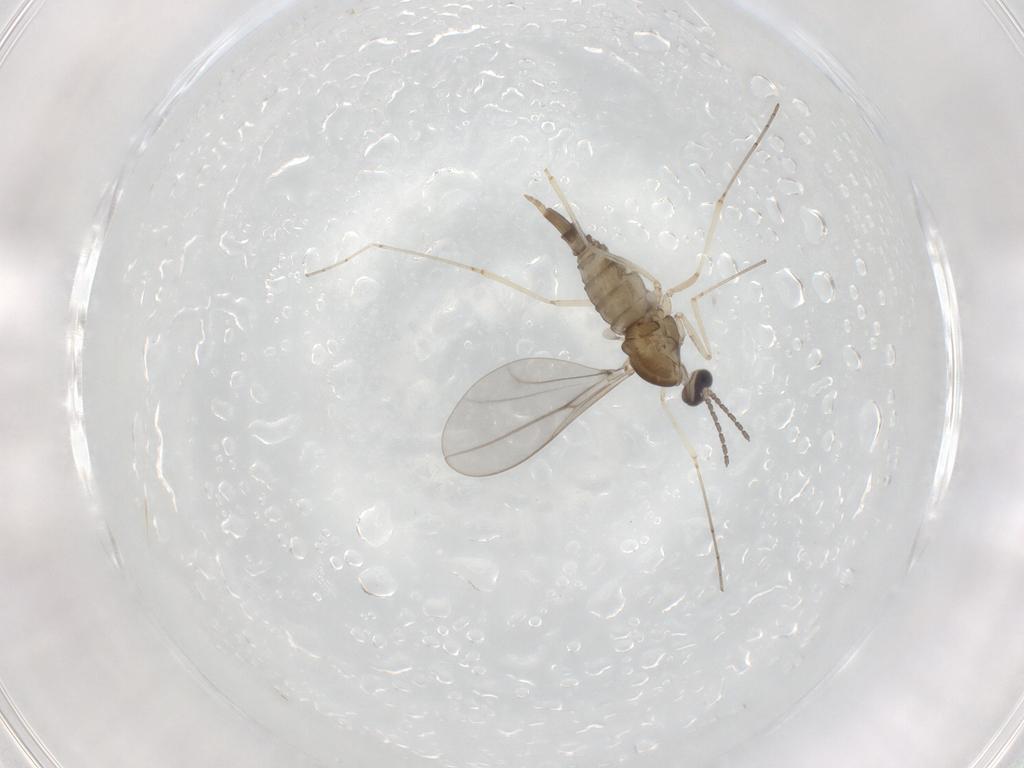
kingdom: Animalia
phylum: Arthropoda
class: Insecta
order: Diptera
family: Cecidomyiidae
